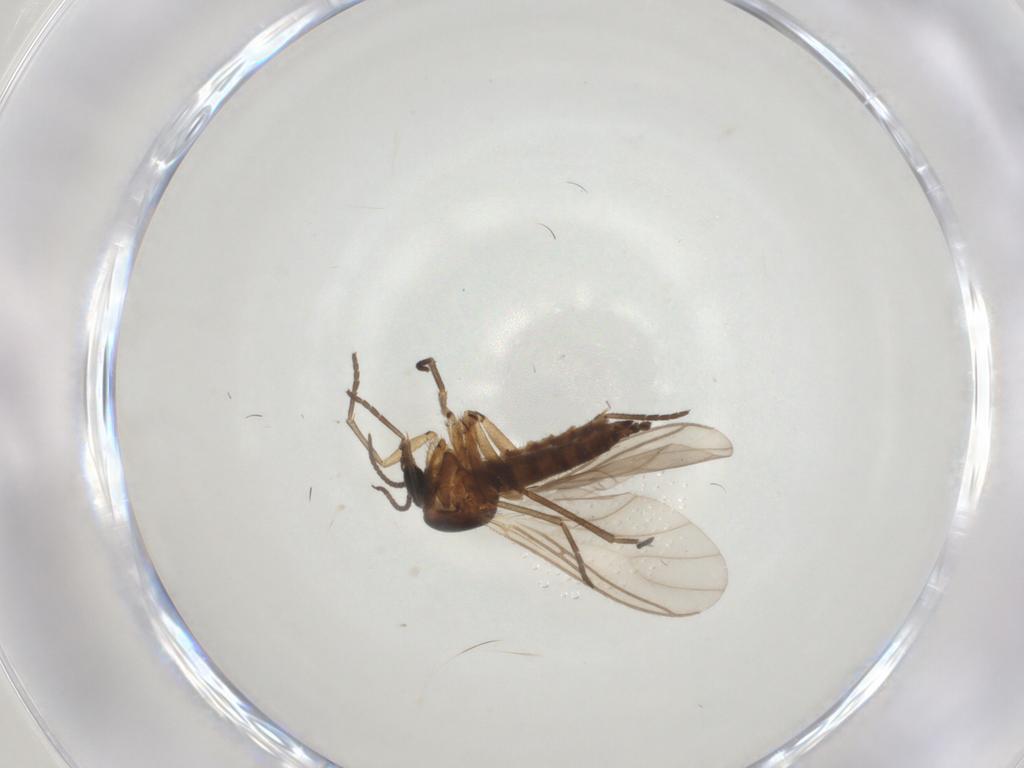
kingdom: Animalia
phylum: Arthropoda
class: Insecta
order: Diptera
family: Sciaridae
